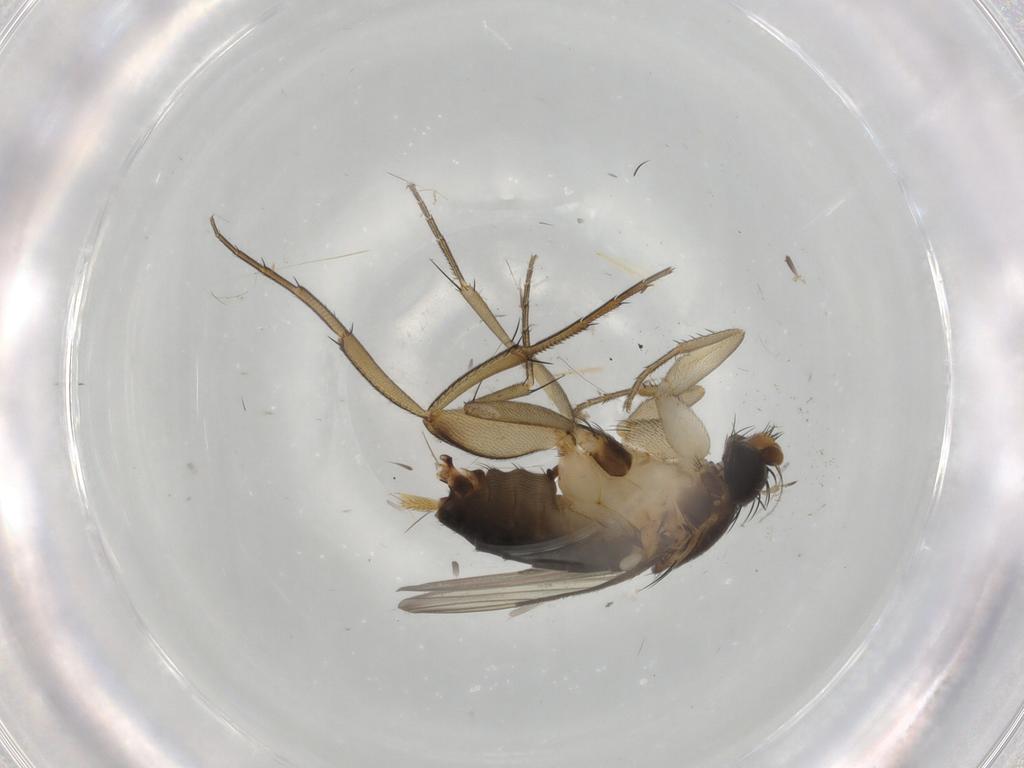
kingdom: Animalia
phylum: Arthropoda
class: Insecta
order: Diptera
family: Phoridae
